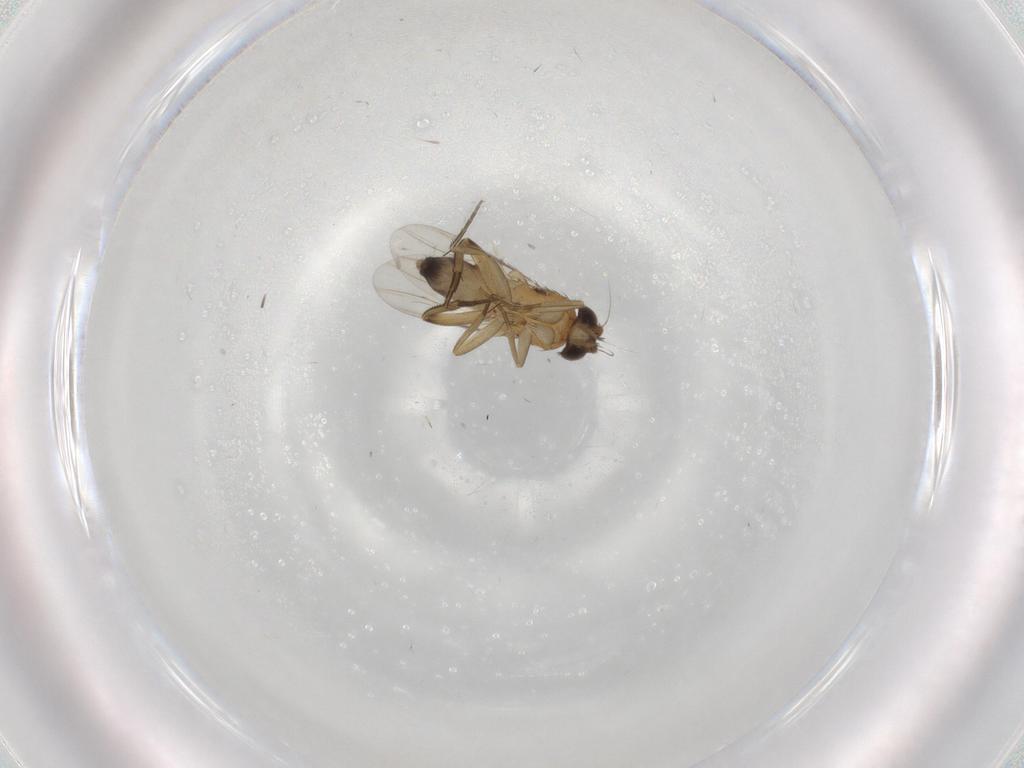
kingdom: Animalia
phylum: Arthropoda
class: Insecta
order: Diptera
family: Phoridae
